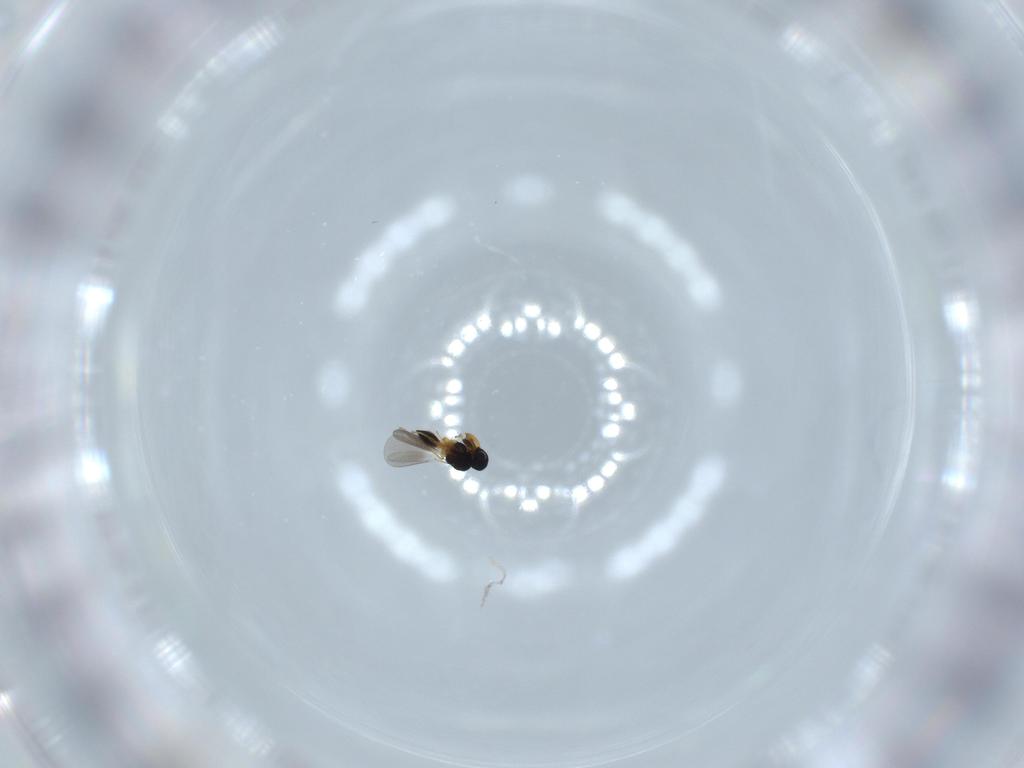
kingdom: Animalia
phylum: Arthropoda
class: Insecta
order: Hymenoptera
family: Platygastridae
